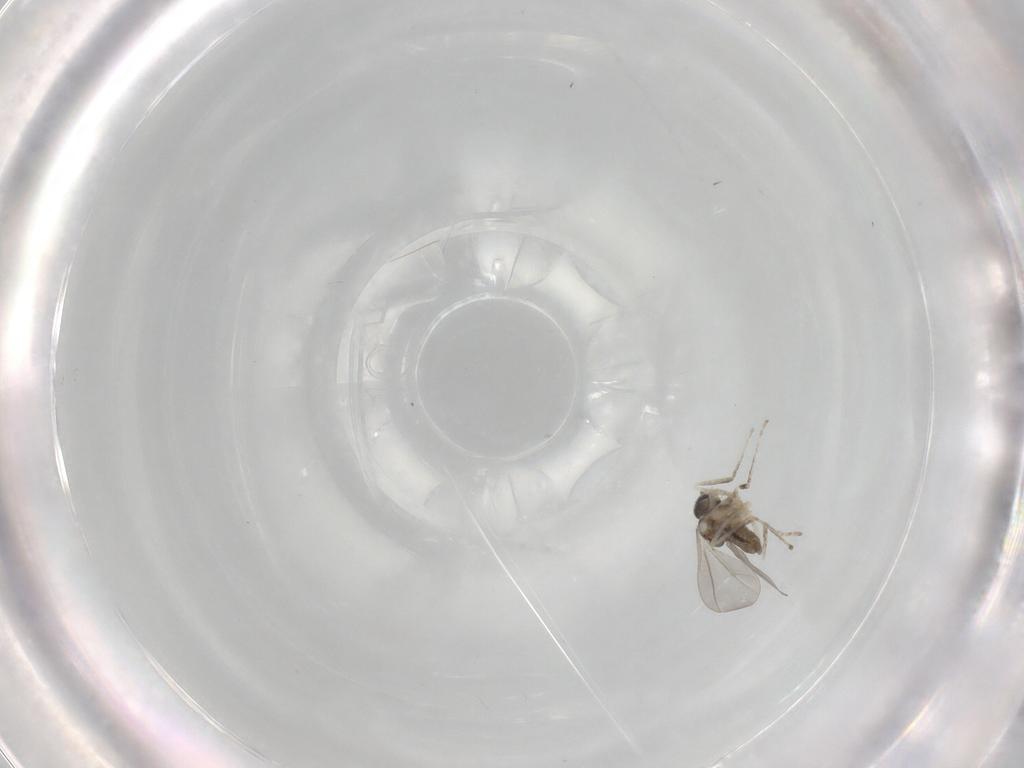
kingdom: Animalia
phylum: Arthropoda
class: Insecta
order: Diptera
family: Cecidomyiidae
